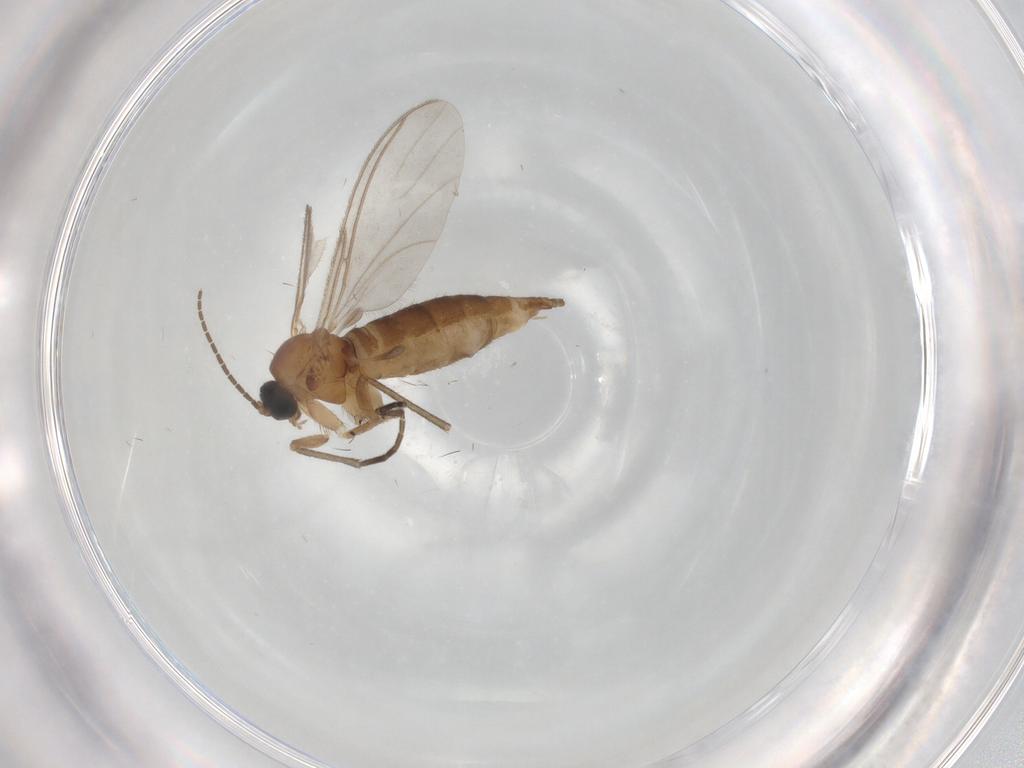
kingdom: Animalia
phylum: Arthropoda
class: Insecta
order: Diptera
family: Sciaridae
